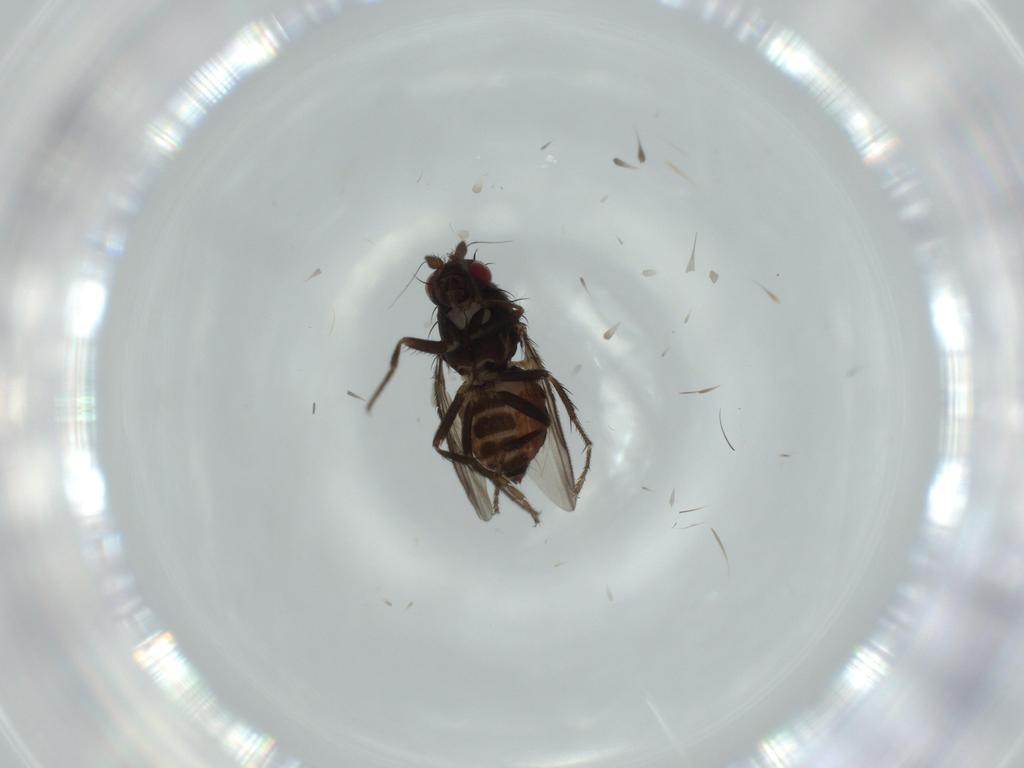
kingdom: Animalia
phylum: Arthropoda
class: Insecta
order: Diptera
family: Sphaeroceridae
